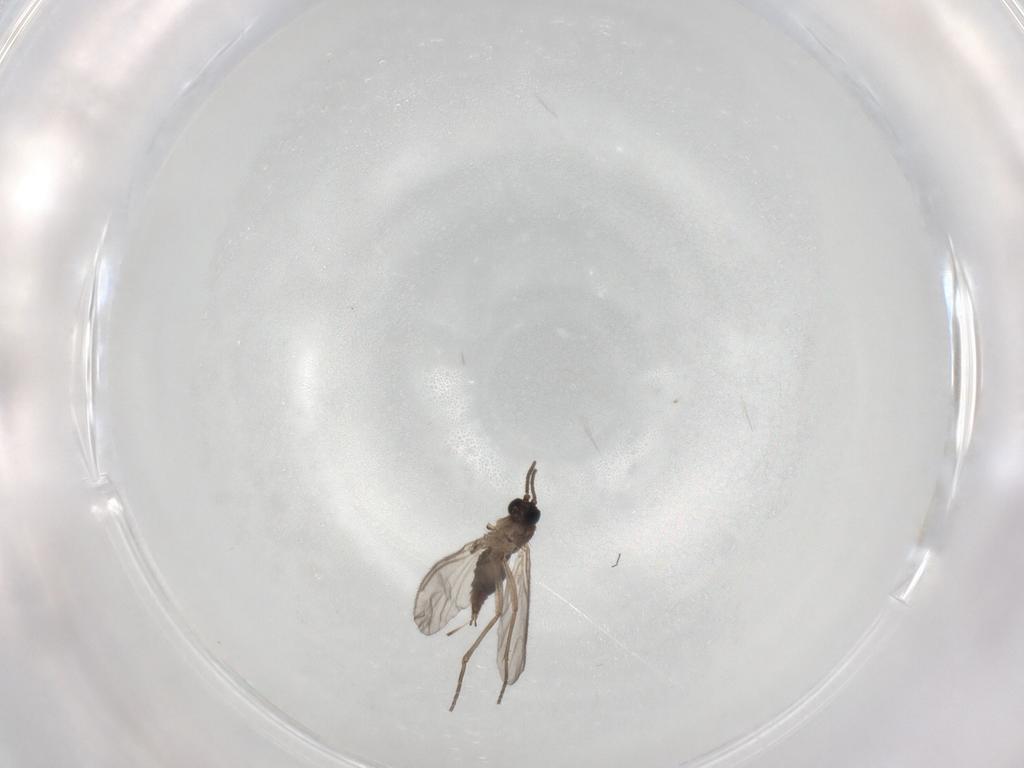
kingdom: Animalia
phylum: Arthropoda
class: Insecta
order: Diptera
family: Sciaridae
